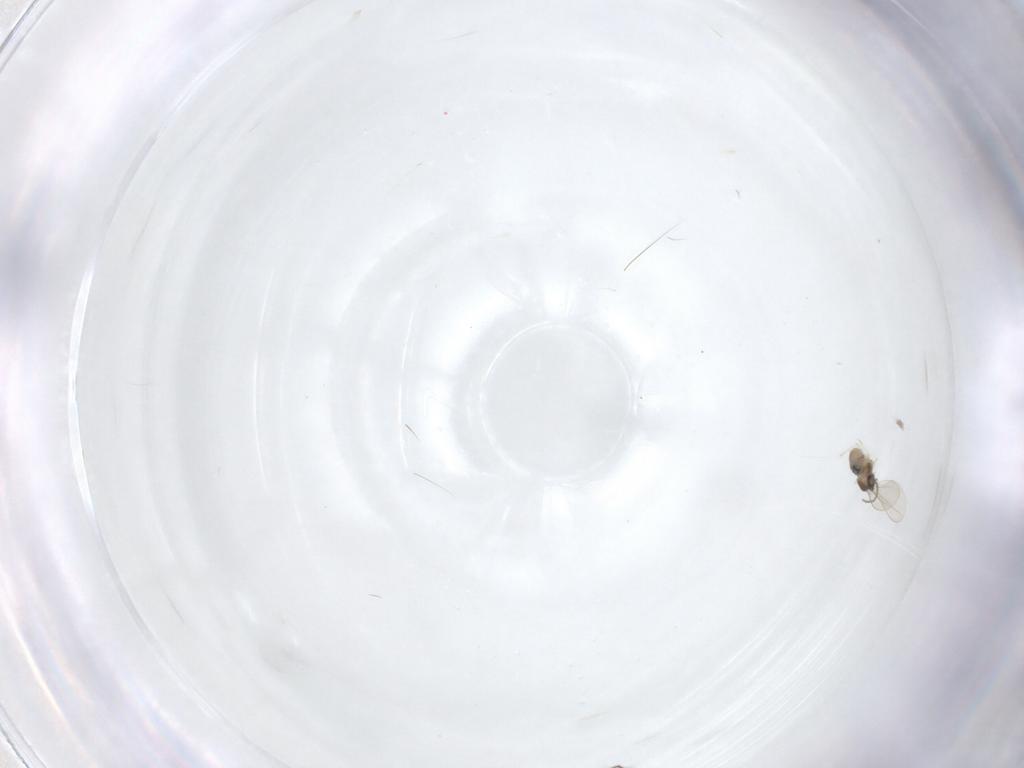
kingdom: Animalia
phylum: Arthropoda
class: Insecta
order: Diptera
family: Chironomidae
